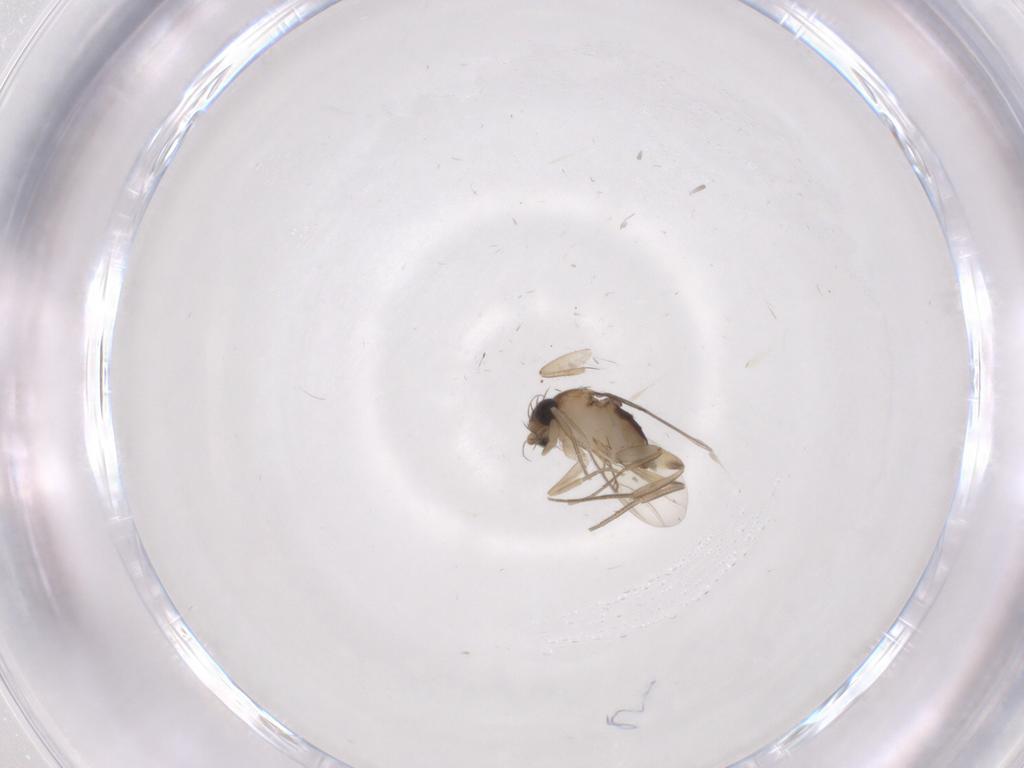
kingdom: Animalia
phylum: Arthropoda
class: Insecta
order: Diptera
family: Phoridae
